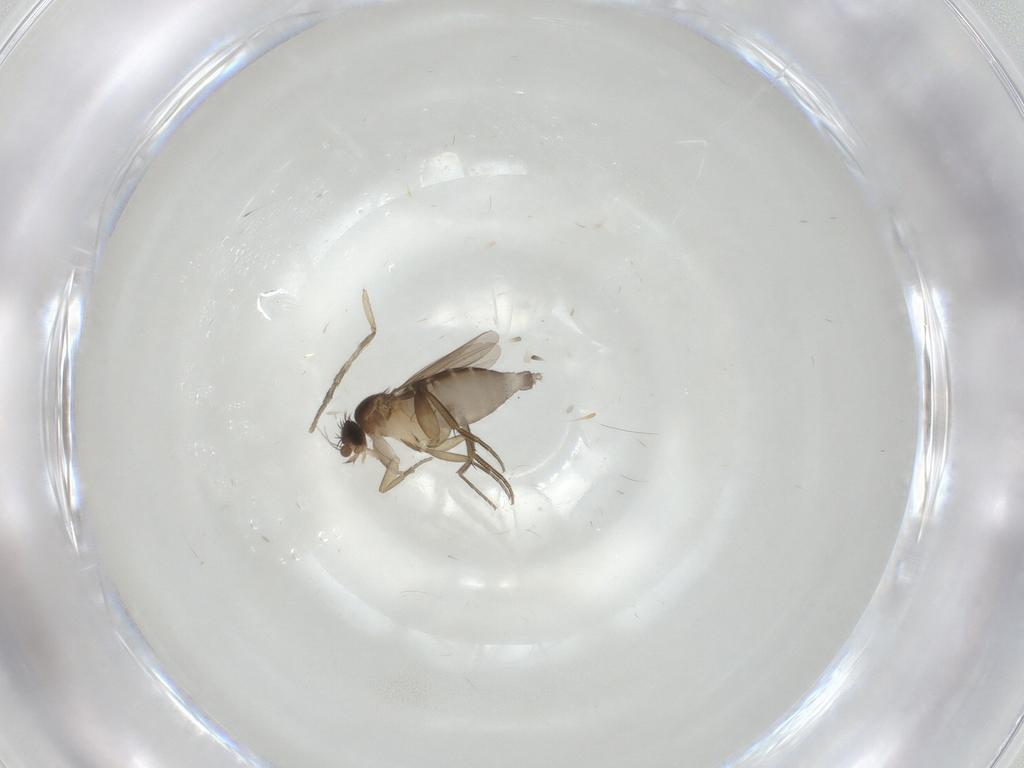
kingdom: Animalia
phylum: Arthropoda
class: Insecta
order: Diptera
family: Phoridae
